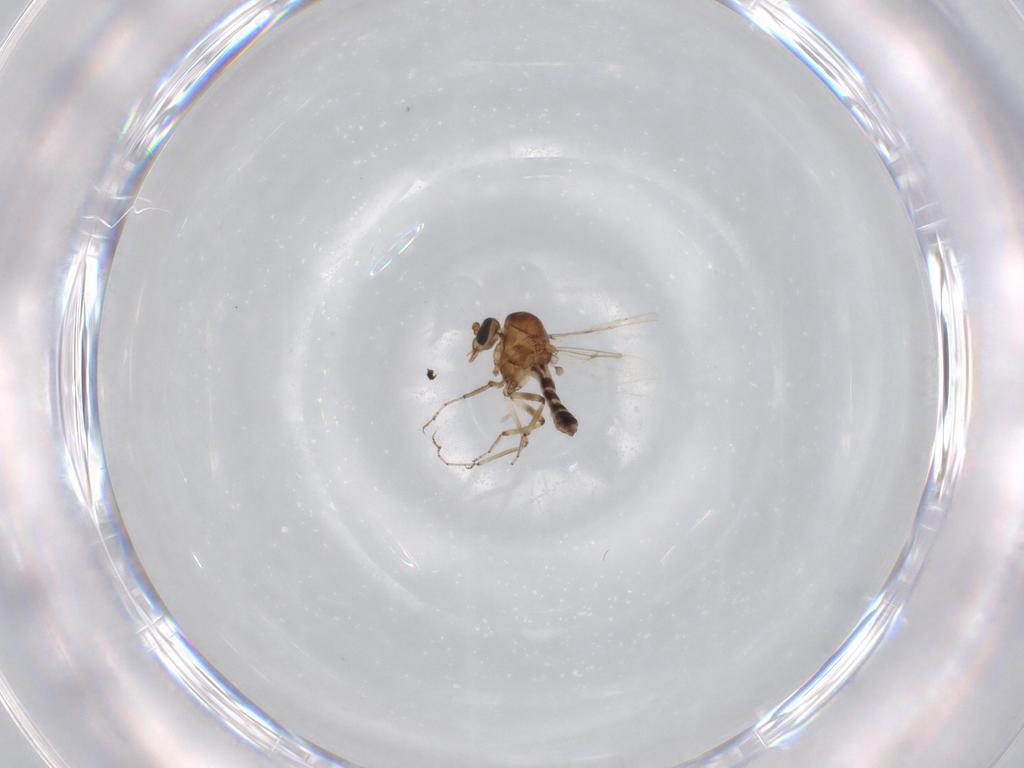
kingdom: Animalia
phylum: Arthropoda
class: Insecta
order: Diptera
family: Ceratopogonidae
